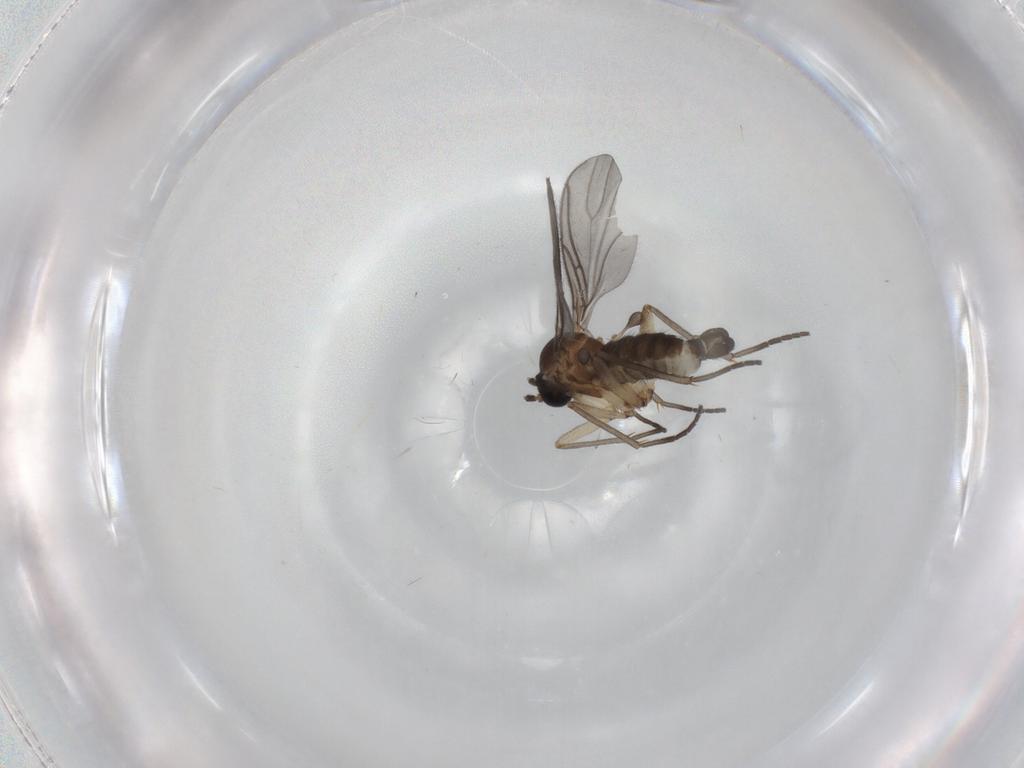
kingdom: Animalia
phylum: Arthropoda
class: Insecta
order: Diptera
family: Sciaridae
